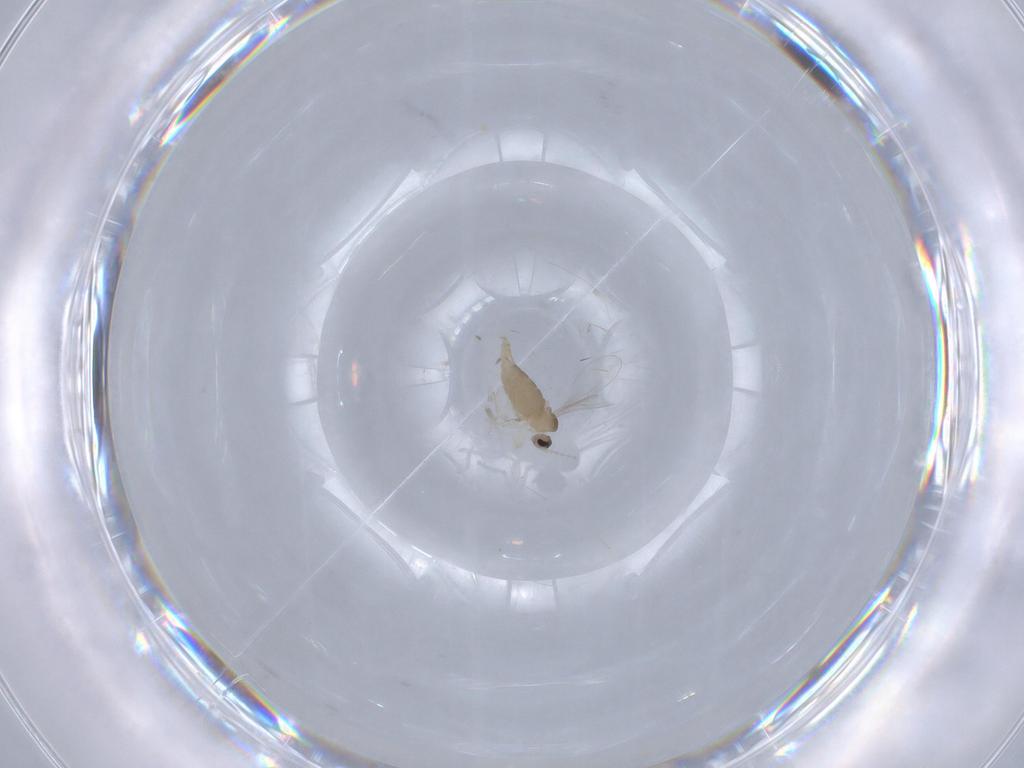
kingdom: Animalia
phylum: Arthropoda
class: Insecta
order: Diptera
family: Cecidomyiidae
